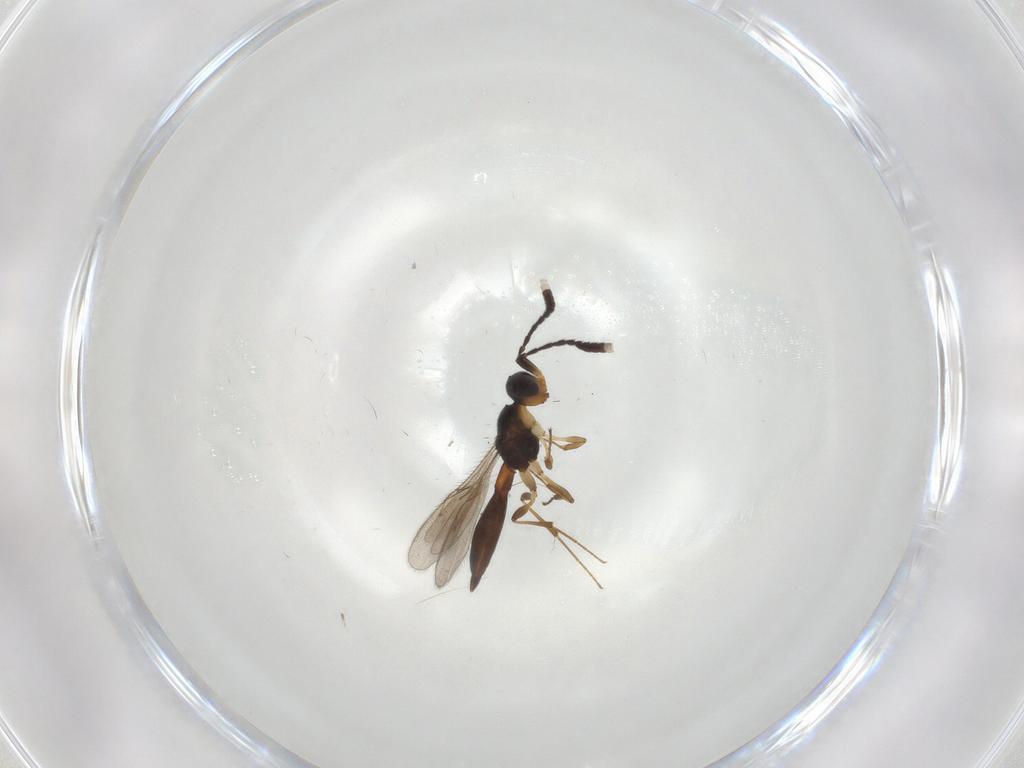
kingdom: Animalia
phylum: Arthropoda
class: Insecta
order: Hymenoptera
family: Scelionidae
